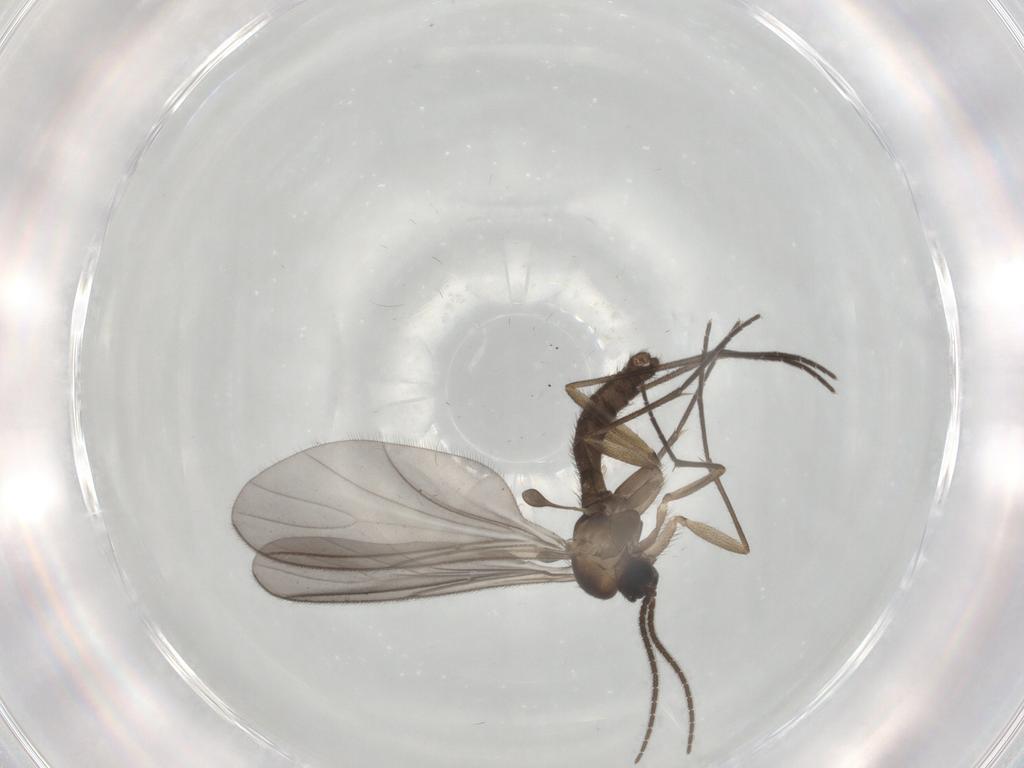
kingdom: Animalia
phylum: Arthropoda
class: Insecta
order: Diptera
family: Sciaridae
